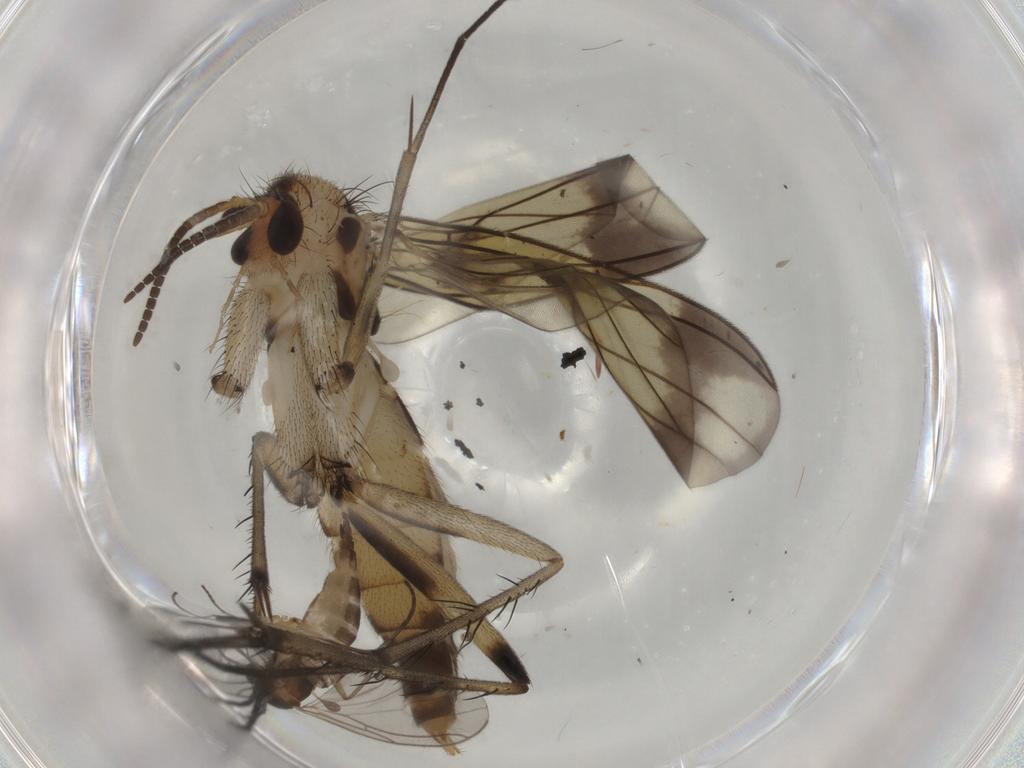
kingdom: Animalia
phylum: Arthropoda
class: Insecta
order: Diptera
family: Mycetophilidae
